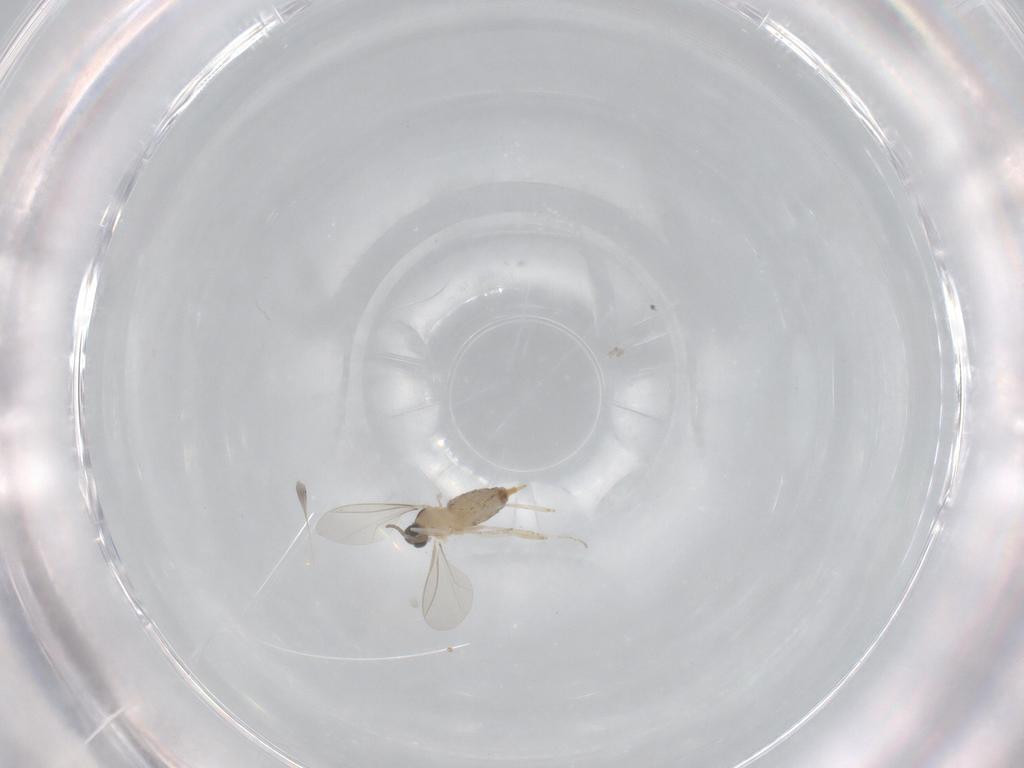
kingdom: Animalia
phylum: Arthropoda
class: Insecta
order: Diptera
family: Cecidomyiidae
